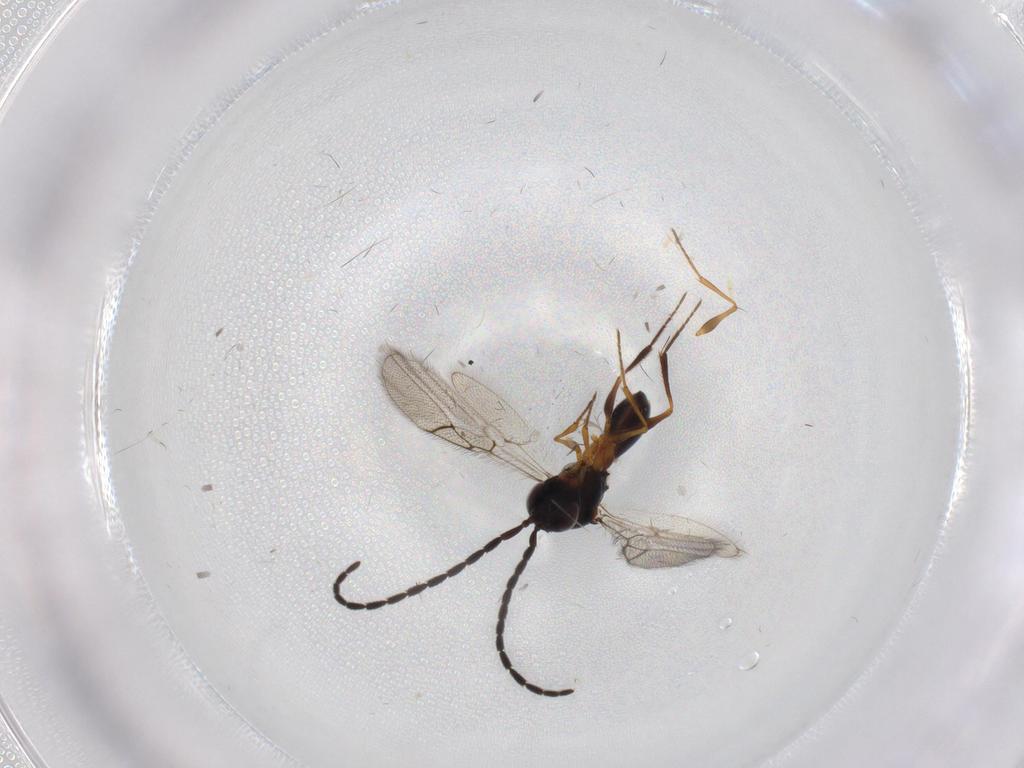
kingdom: Animalia
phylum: Arthropoda
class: Insecta
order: Hymenoptera
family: Figitidae
